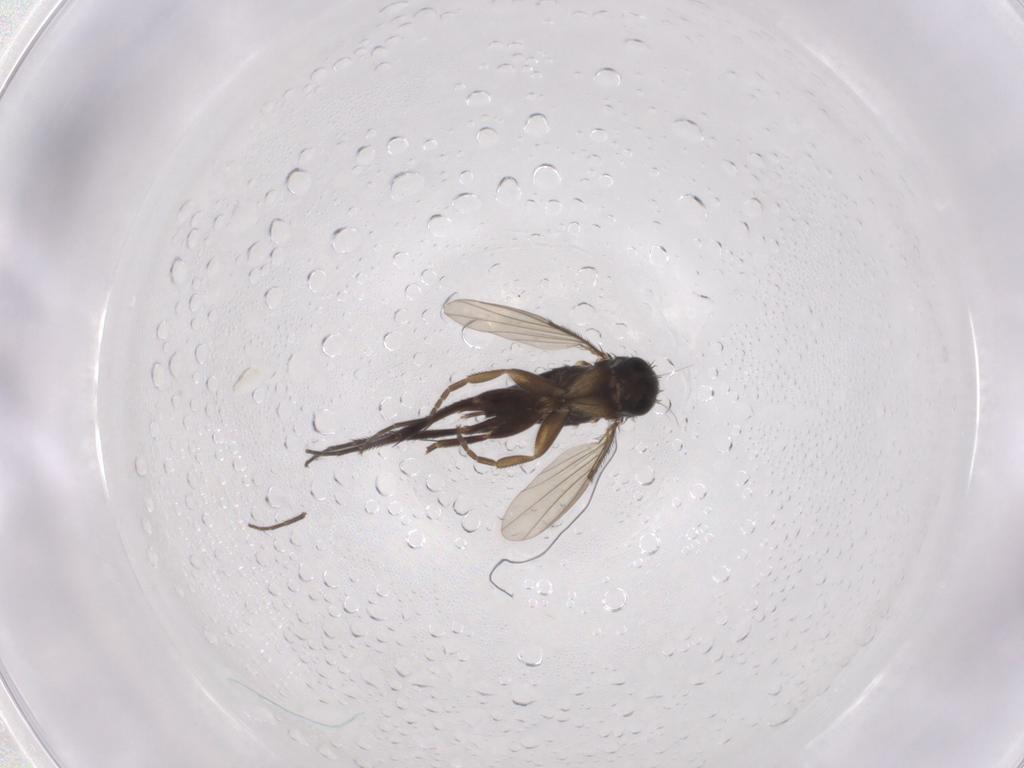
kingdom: Animalia
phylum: Arthropoda
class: Insecta
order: Diptera
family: Phoridae
